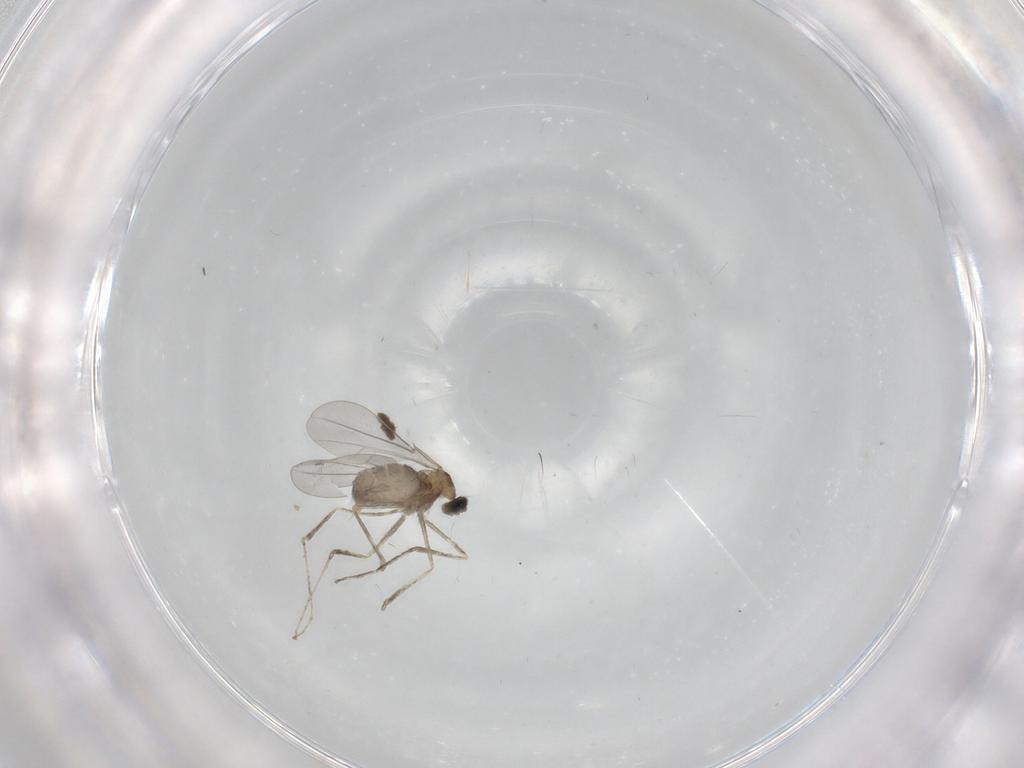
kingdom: Animalia
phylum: Arthropoda
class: Insecta
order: Diptera
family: Cecidomyiidae
